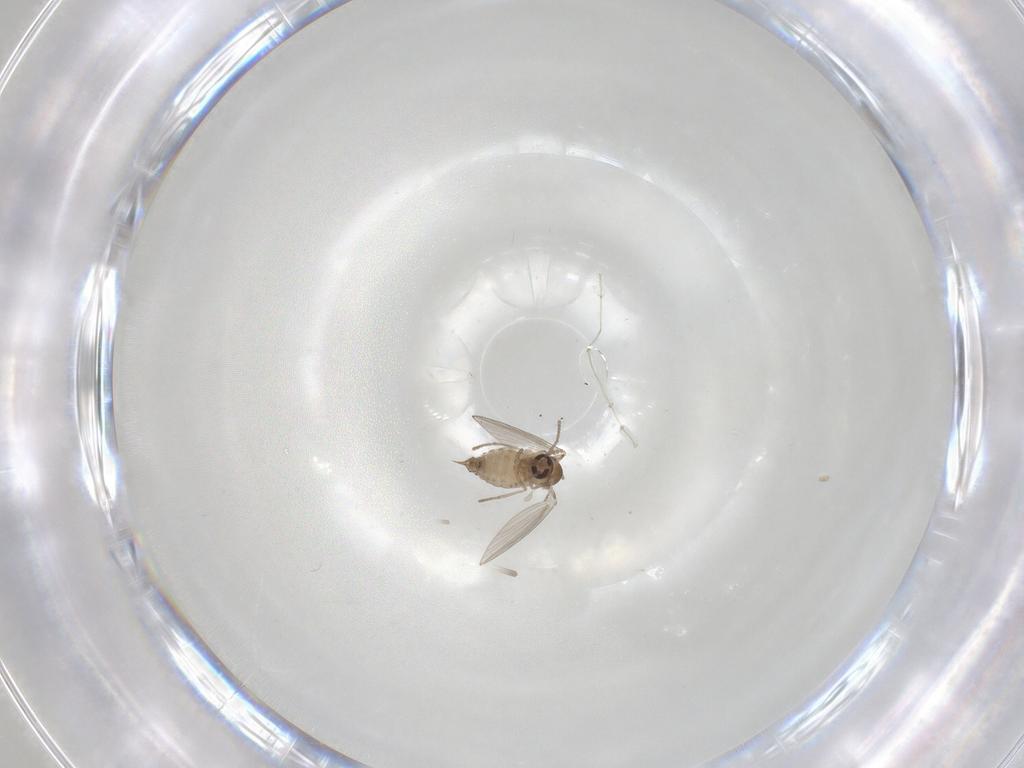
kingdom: Animalia
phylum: Arthropoda
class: Insecta
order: Diptera
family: Psychodidae
